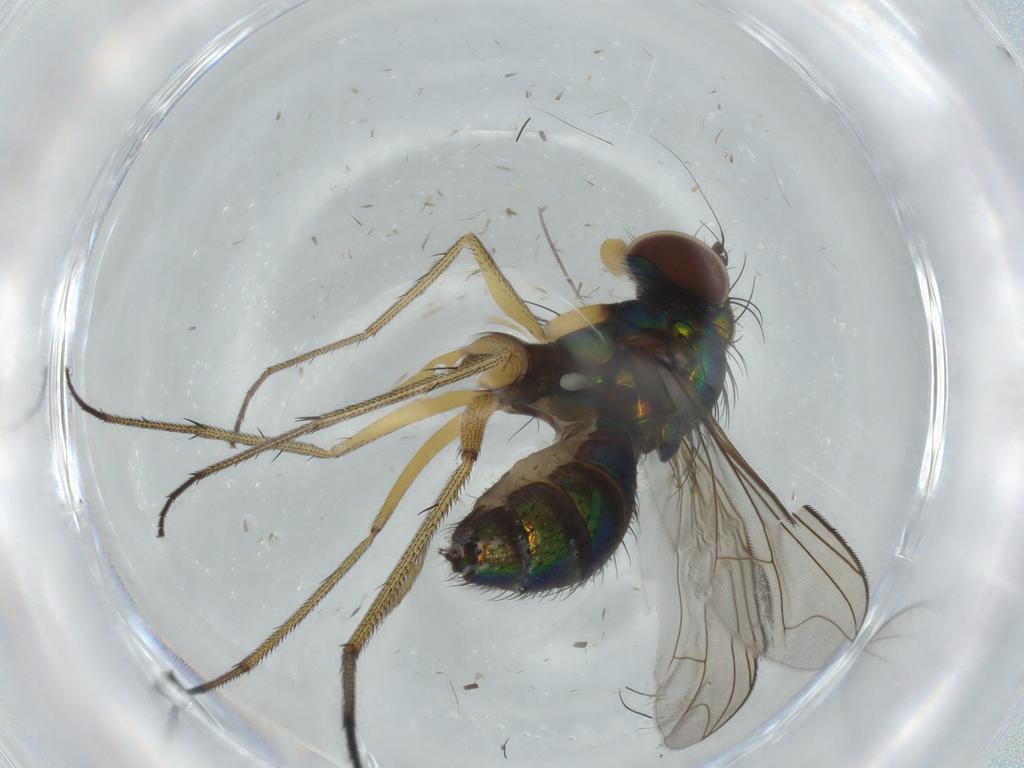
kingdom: Animalia
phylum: Arthropoda
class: Insecta
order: Diptera
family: Dolichopodidae
